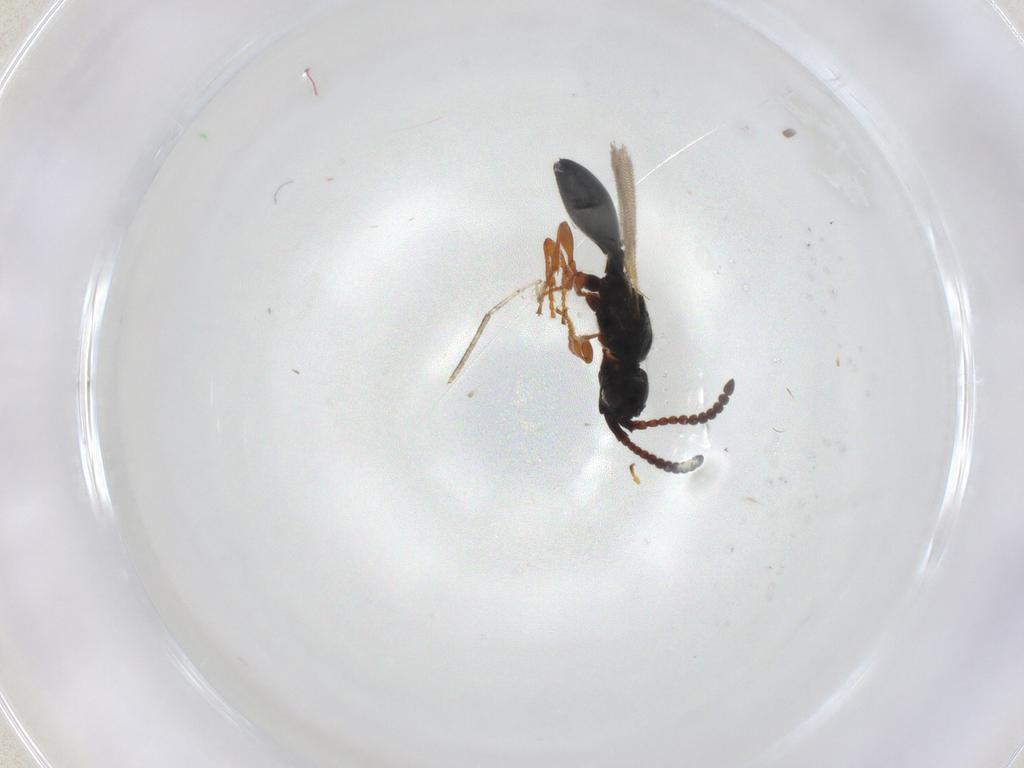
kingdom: Animalia
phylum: Arthropoda
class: Insecta
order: Hymenoptera
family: Diapriidae
